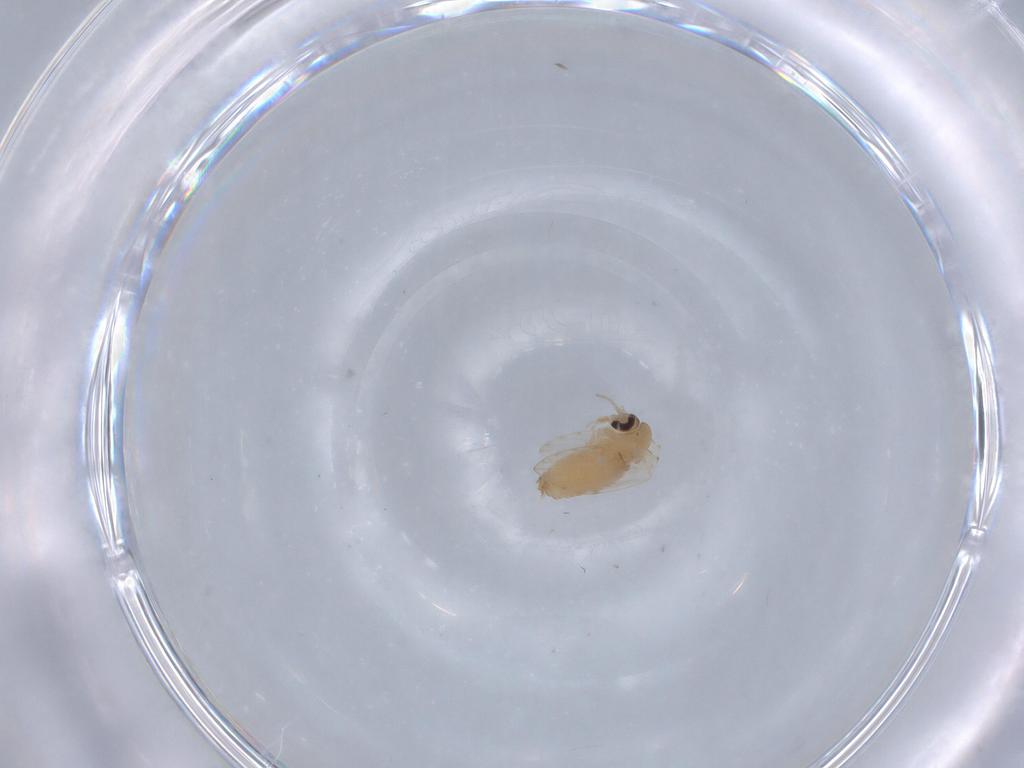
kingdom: Animalia
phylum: Arthropoda
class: Insecta
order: Diptera
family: Psychodidae
